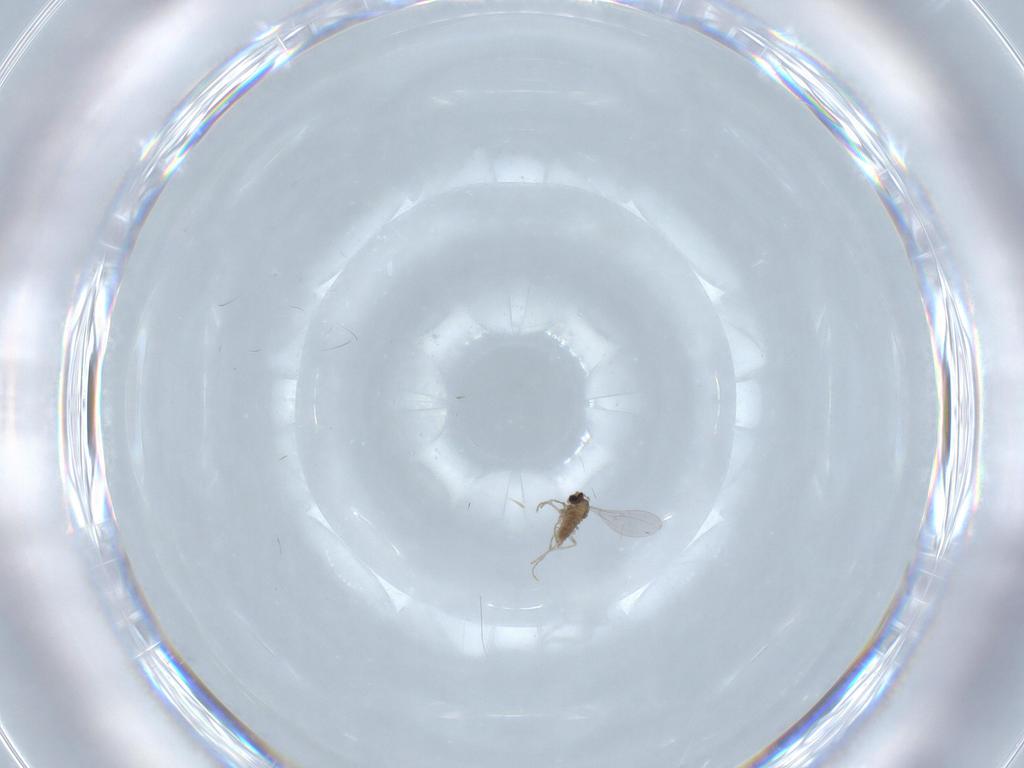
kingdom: Animalia
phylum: Arthropoda
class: Insecta
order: Diptera
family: Cecidomyiidae
